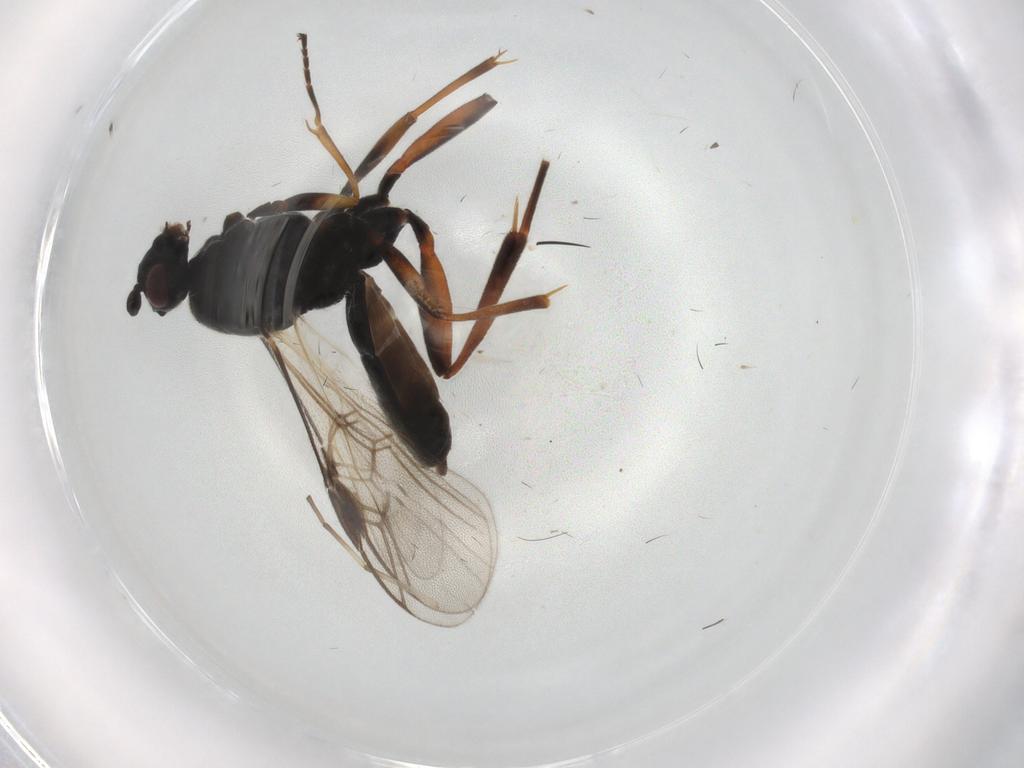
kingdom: Animalia
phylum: Arthropoda
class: Insecta
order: Hymenoptera
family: Braconidae
